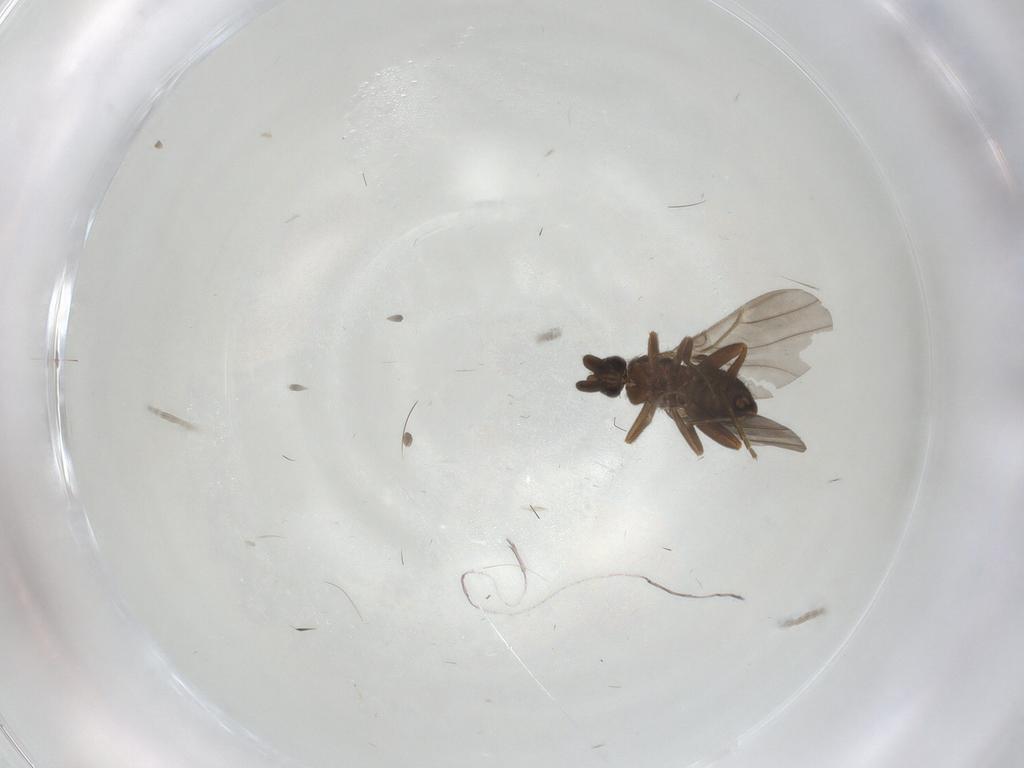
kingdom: Animalia
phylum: Arthropoda
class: Insecta
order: Diptera
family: Phoridae
